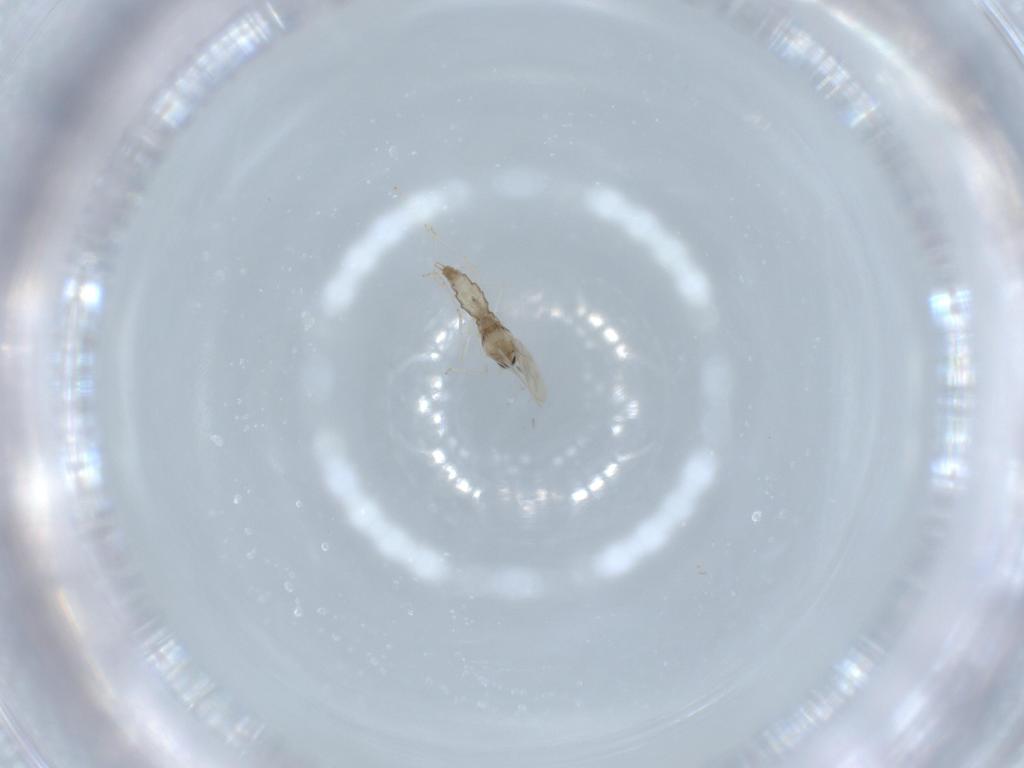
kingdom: Animalia
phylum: Arthropoda
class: Insecta
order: Diptera
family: Cecidomyiidae
